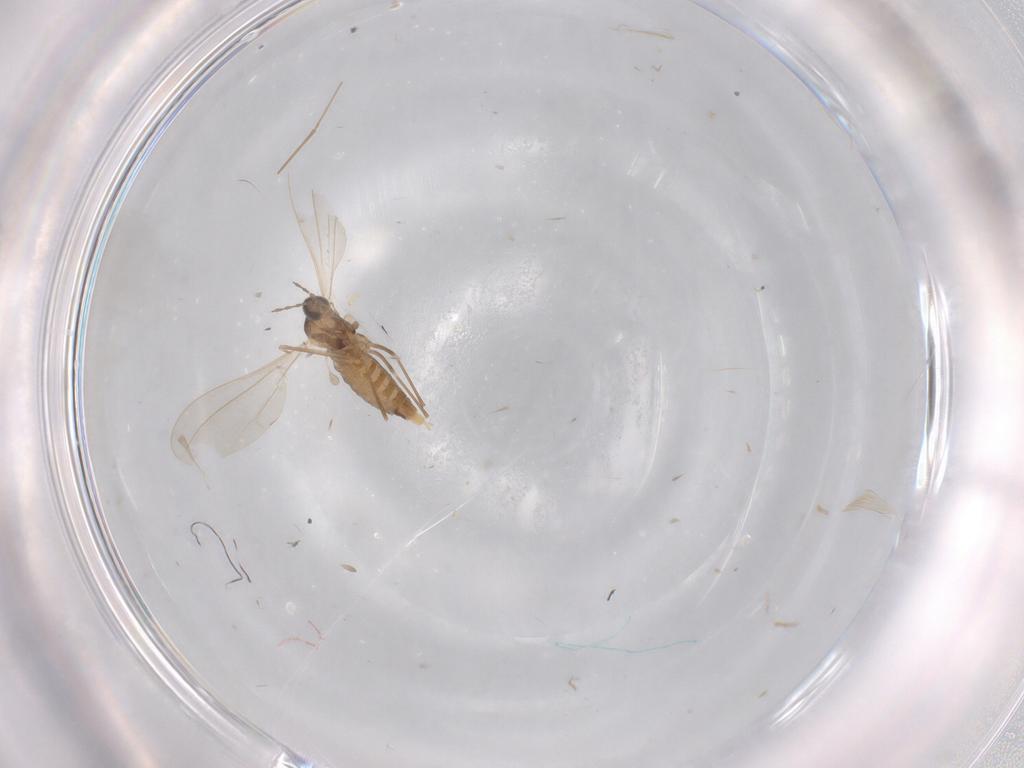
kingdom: Animalia
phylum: Arthropoda
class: Insecta
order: Diptera
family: Cecidomyiidae
